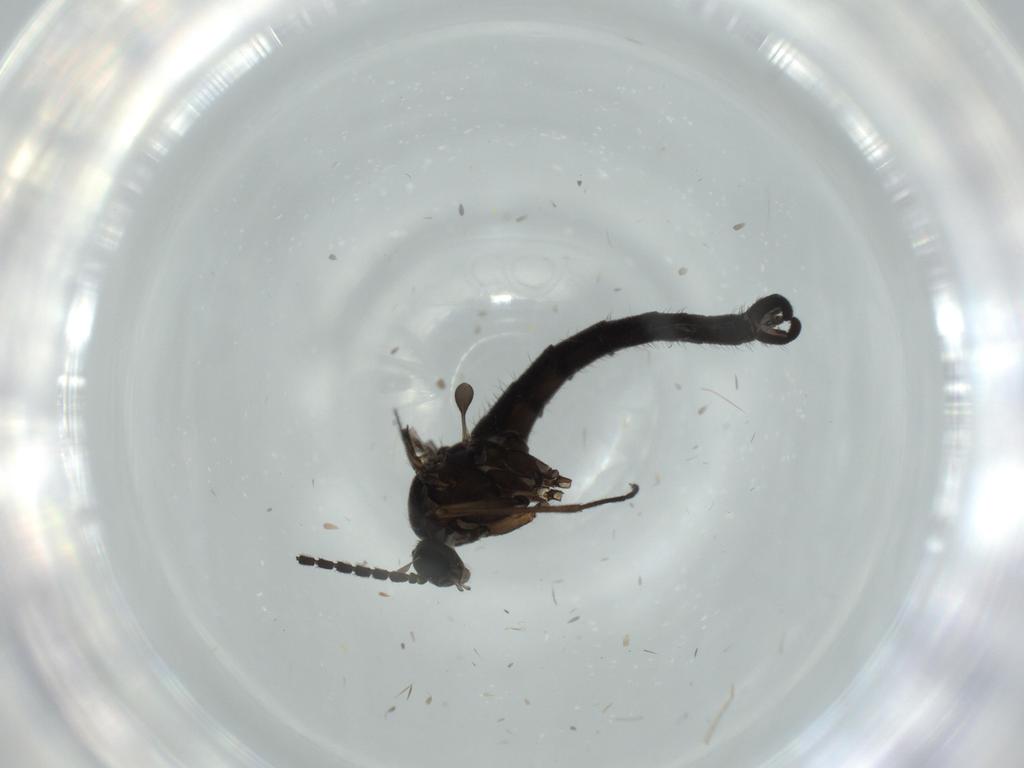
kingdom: Animalia
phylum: Arthropoda
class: Insecta
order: Diptera
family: Sciaridae
